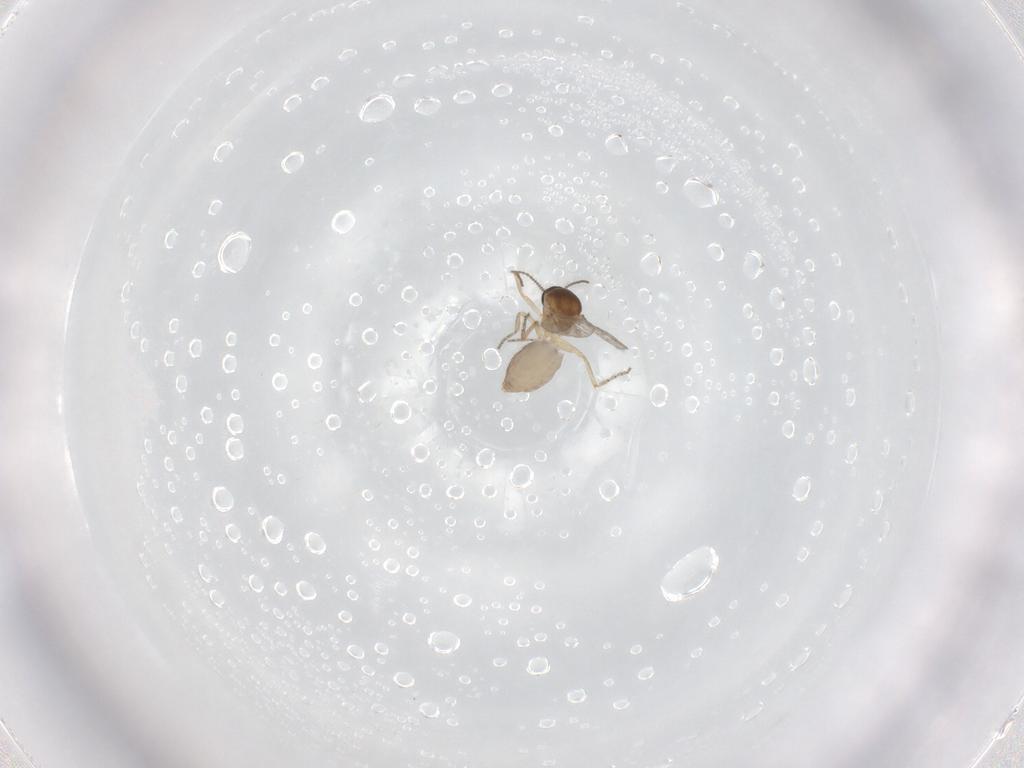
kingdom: Animalia
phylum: Arthropoda
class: Insecta
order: Diptera
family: Ceratopogonidae
